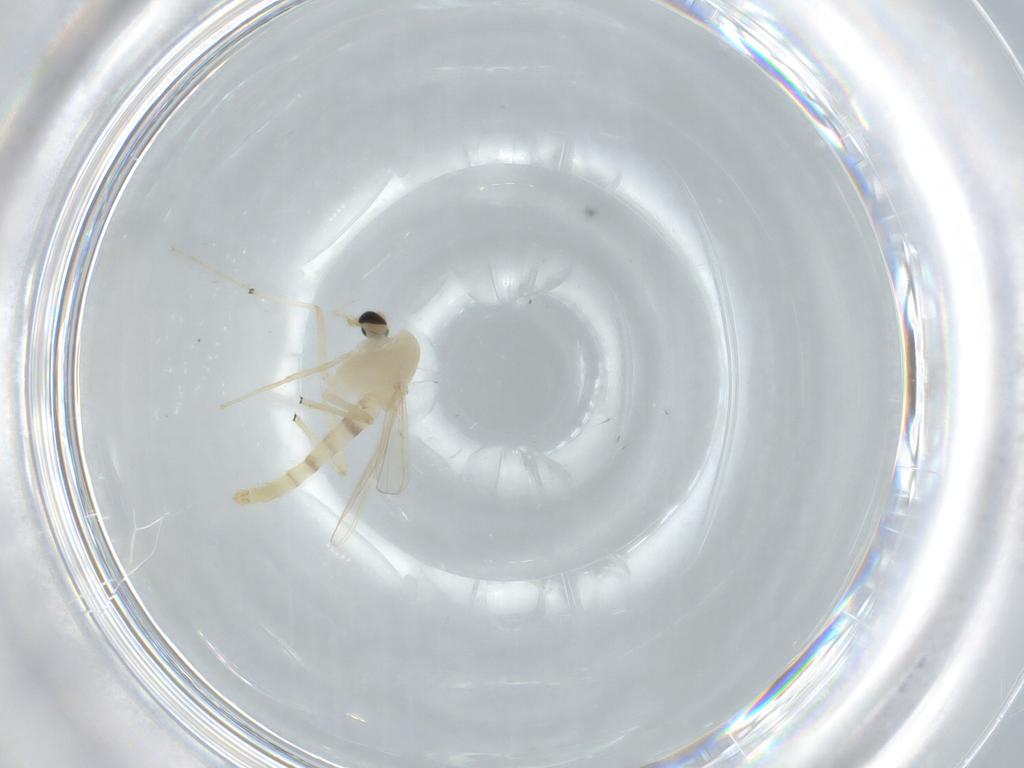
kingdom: Animalia
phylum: Arthropoda
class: Insecta
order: Diptera
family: Chironomidae
